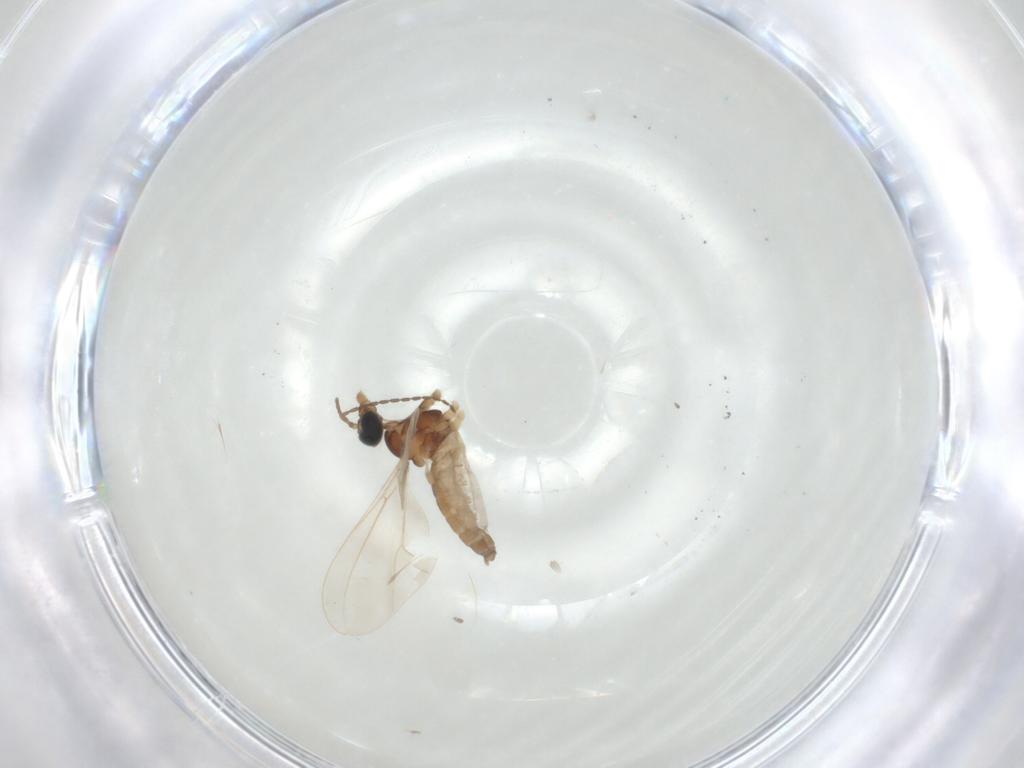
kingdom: Animalia
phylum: Arthropoda
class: Insecta
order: Diptera
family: Cecidomyiidae
